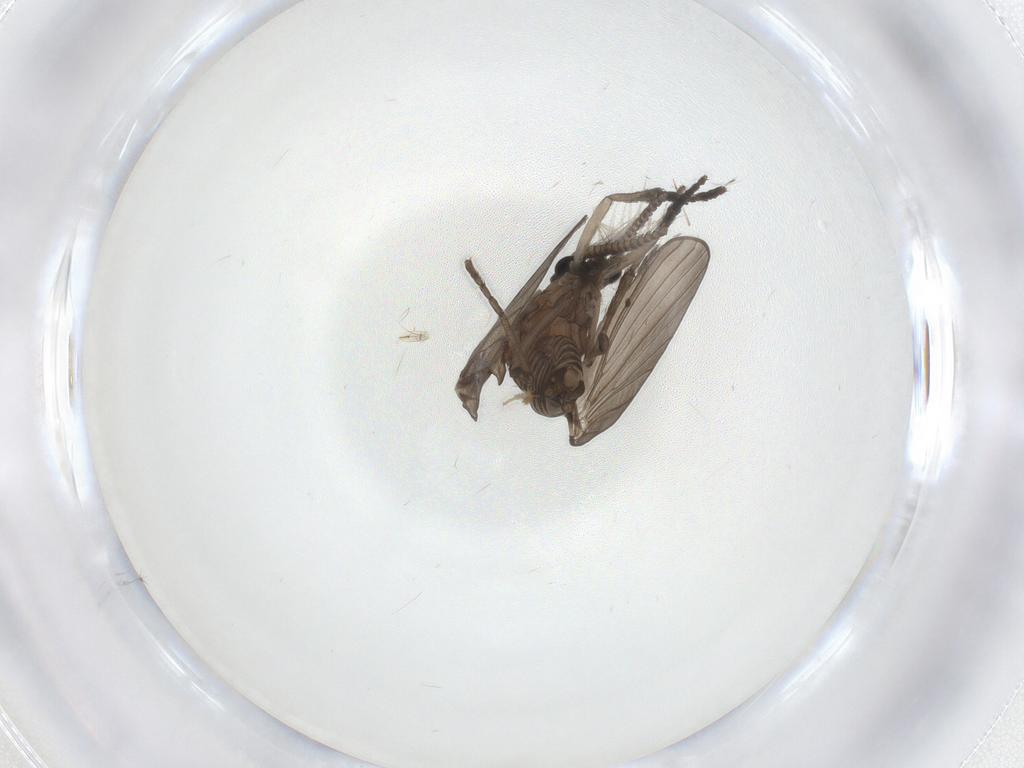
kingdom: Animalia
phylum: Arthropoda
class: Insecta
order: Diptera
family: Cecidomyiidae
